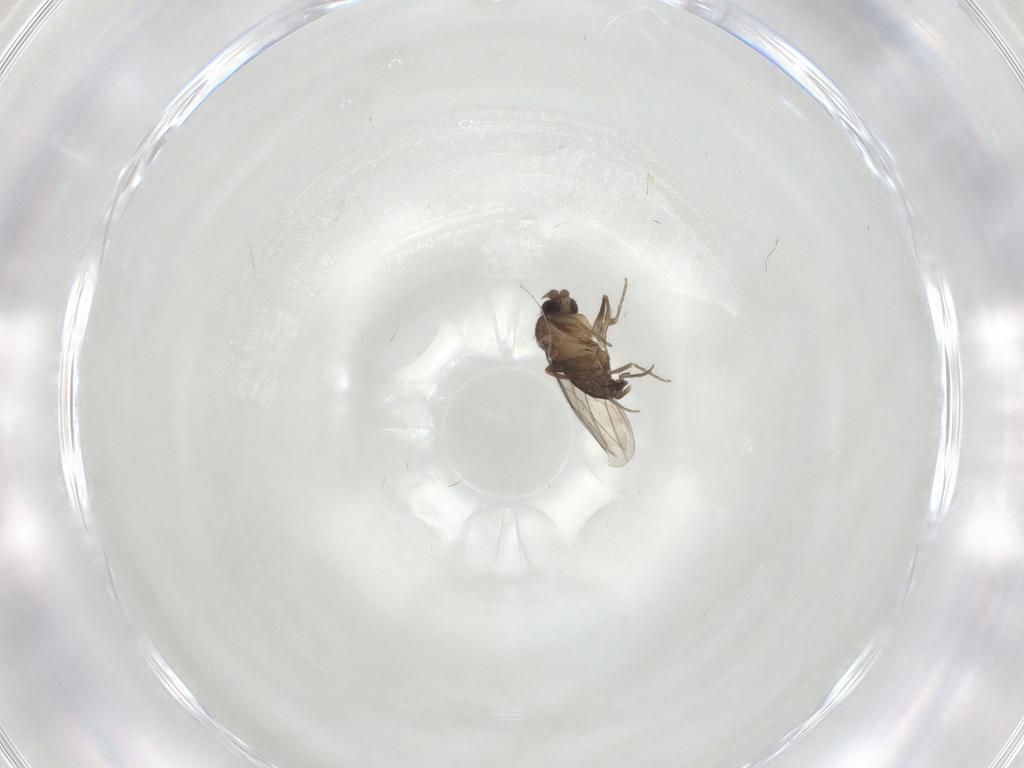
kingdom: Animalia
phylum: Arthropoda
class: Insecta
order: Diptera
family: Phoridae
